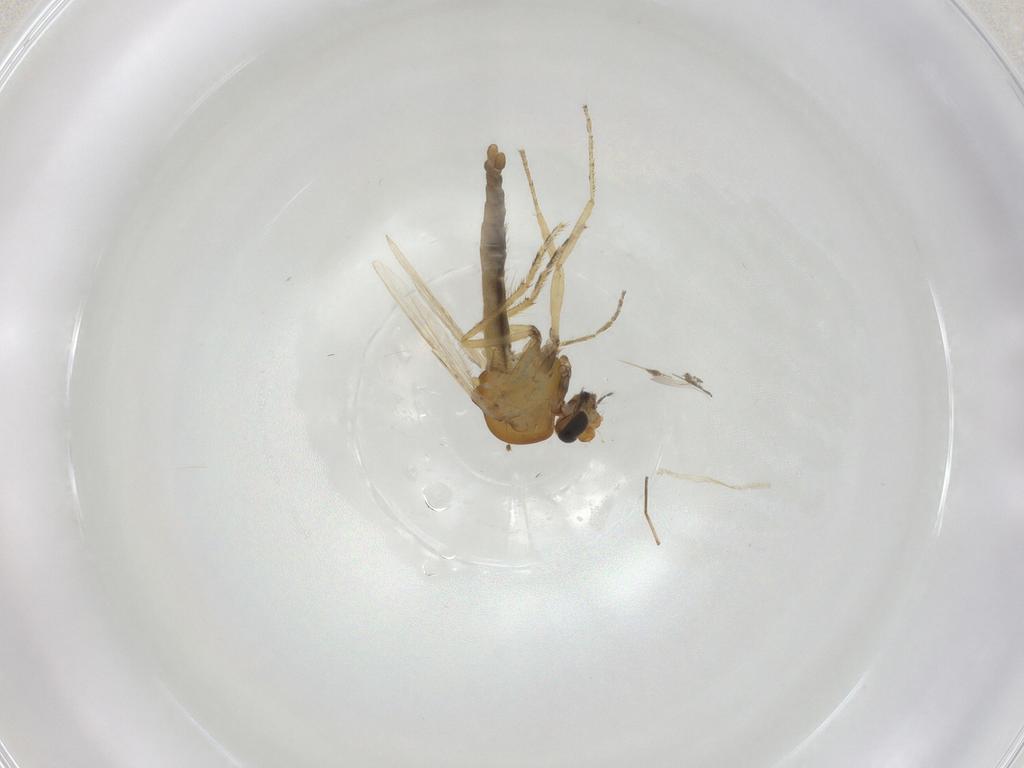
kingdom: Animalia
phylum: Arthropoda
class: Insecta
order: Diptera
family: Ceratopogonidae
